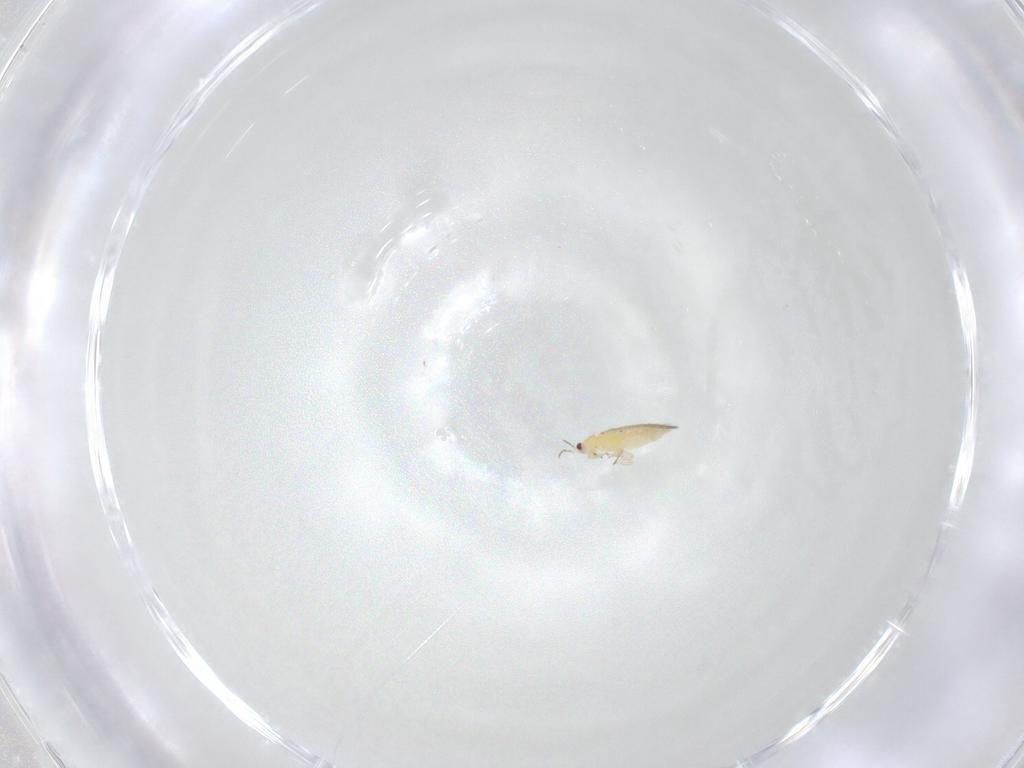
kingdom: Animalia
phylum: Arthropoda
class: Insecta
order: Thysanoptera
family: Thripidae
